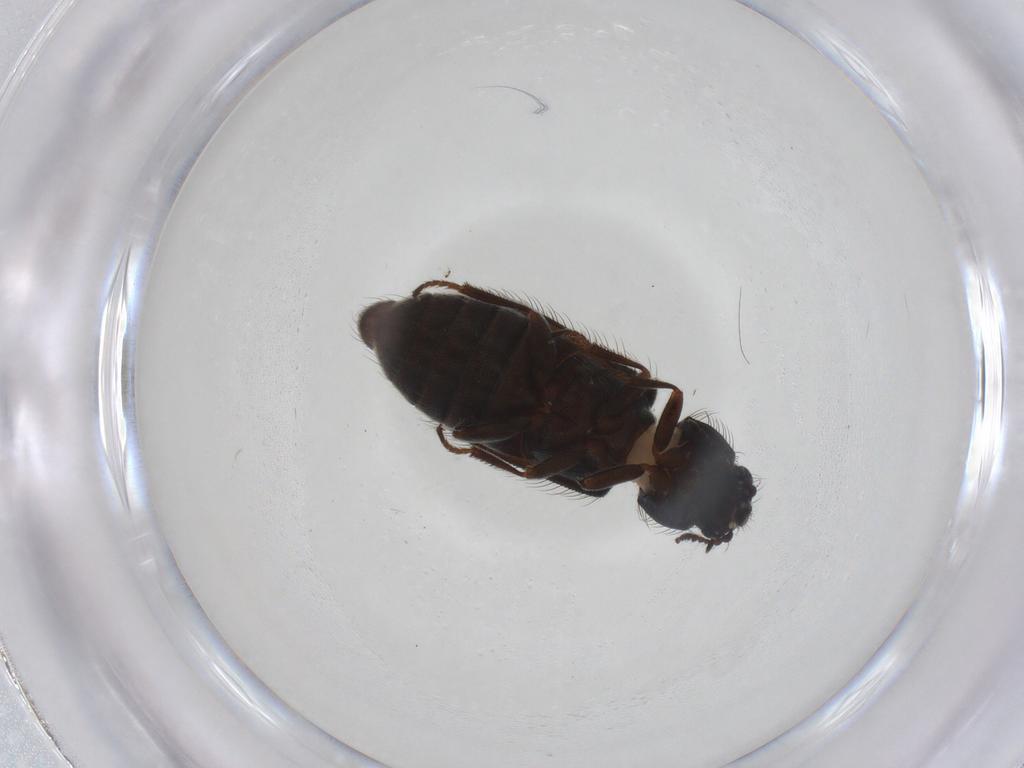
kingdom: Animalia
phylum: Arthropoda
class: Insecta
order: Coleoptera
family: Melyridae
